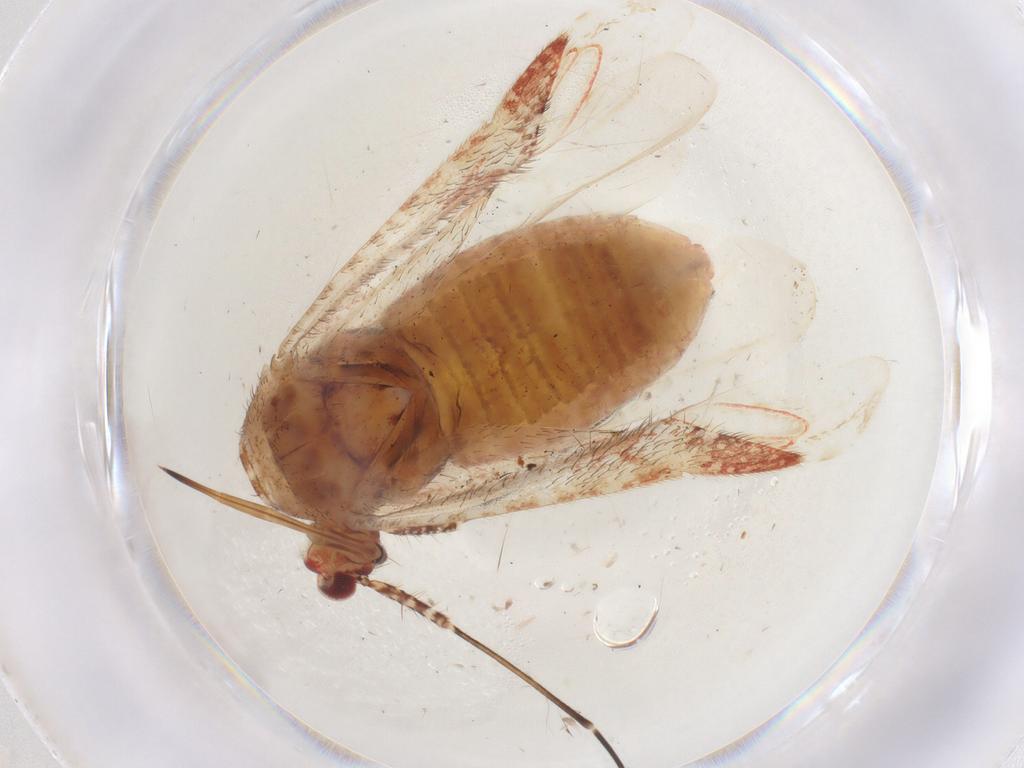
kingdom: Animalia
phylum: Arthropoda
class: Insecta
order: Hemiptera
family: Miridae
